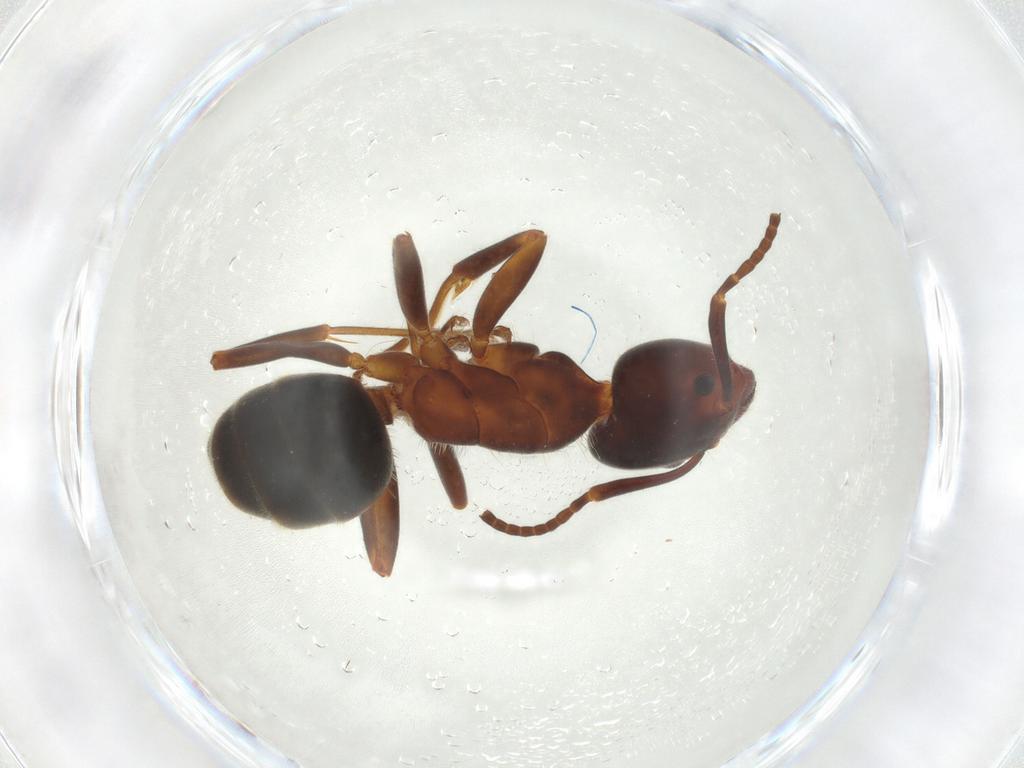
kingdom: Animalia
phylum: Arthropoda
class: Insecta
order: Hymenoptera
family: Formicidae
